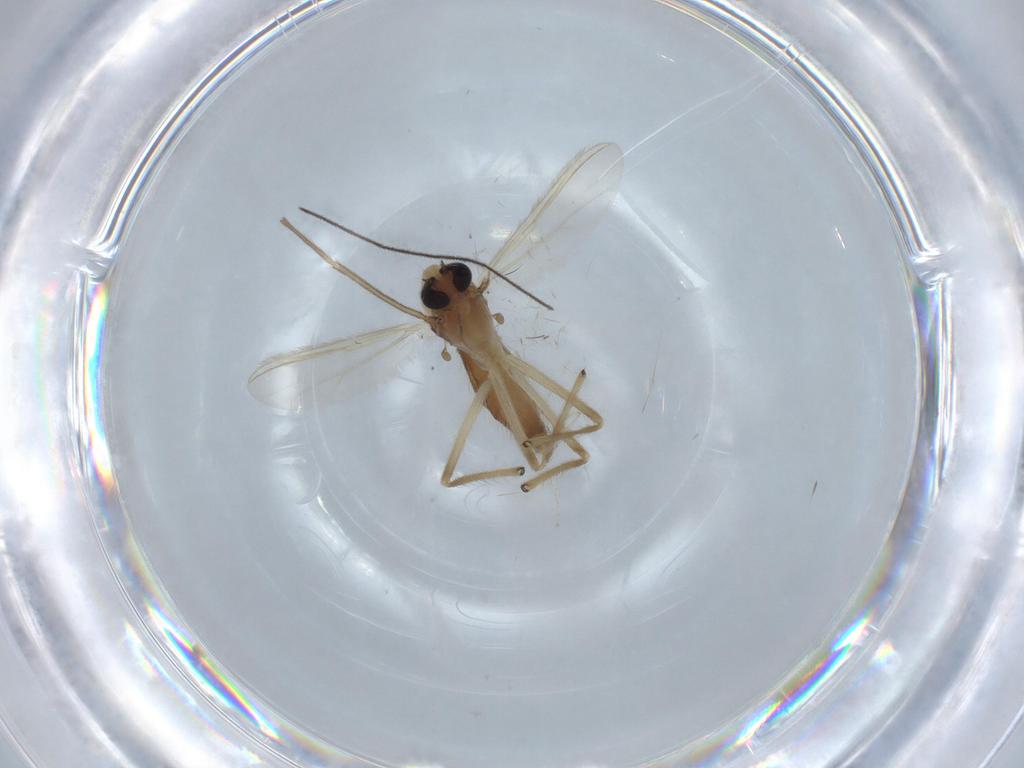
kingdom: Animalia
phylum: Arthropoda
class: Insecta
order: Diptera
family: Chironomidae
